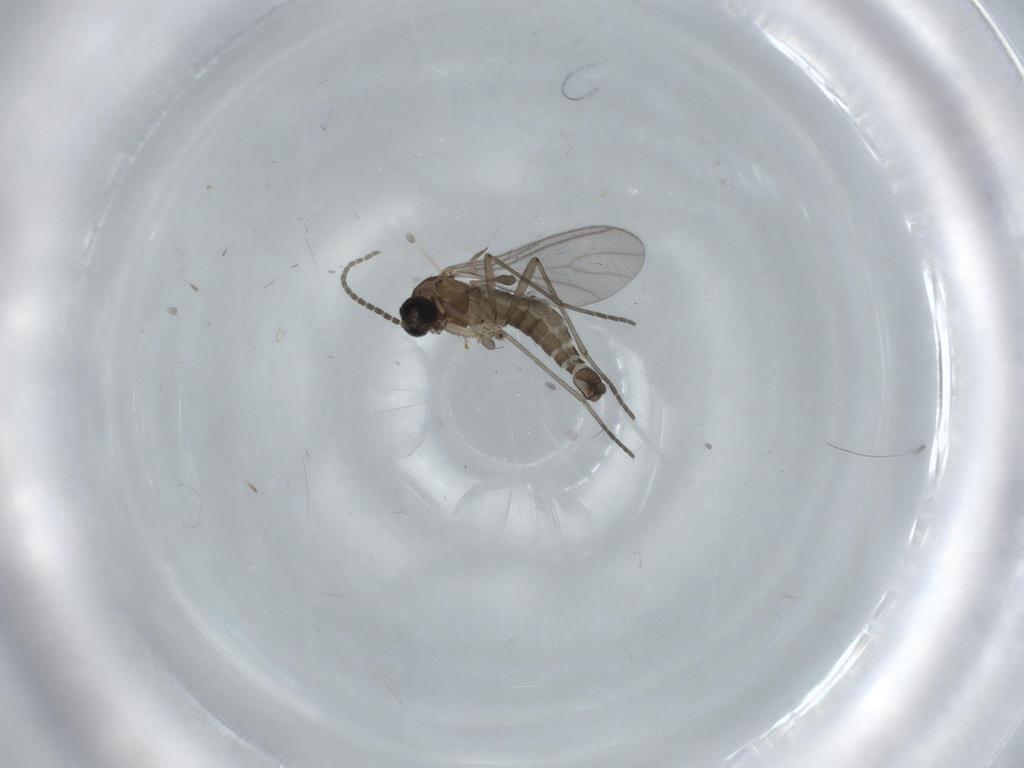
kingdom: Animalia
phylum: Arthropoda
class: Insecta
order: Diptera
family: Sciaridae
